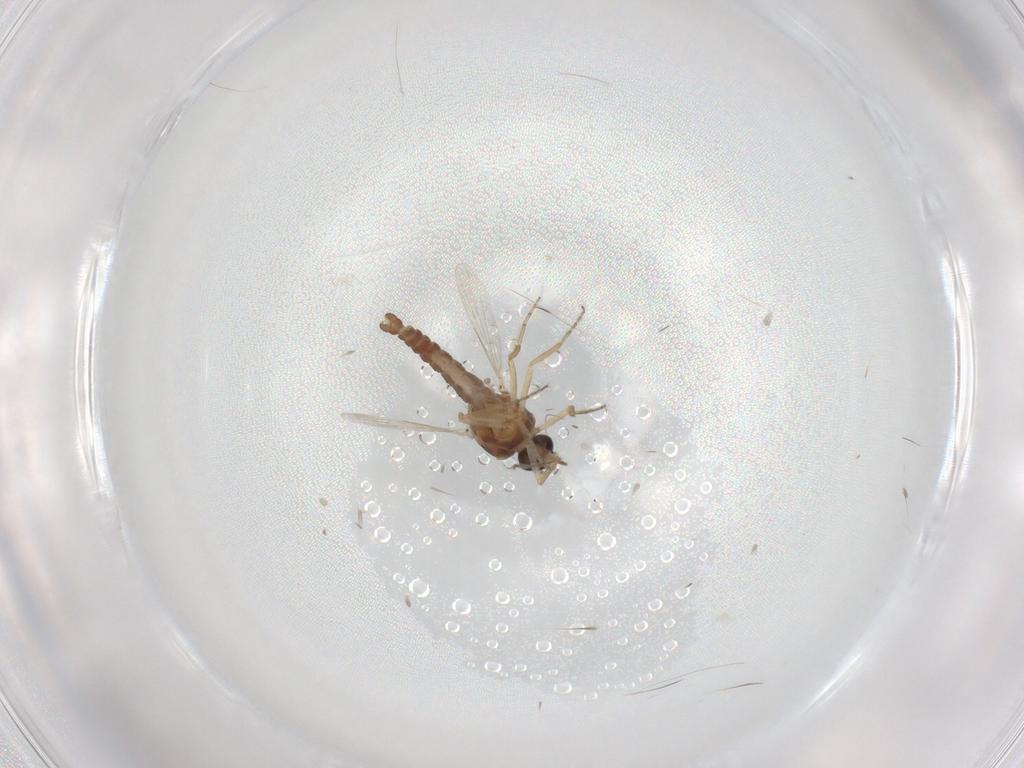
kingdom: Animalia
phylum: Arthropoda
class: Insecta
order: Diptera
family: Ceratopogonidae
